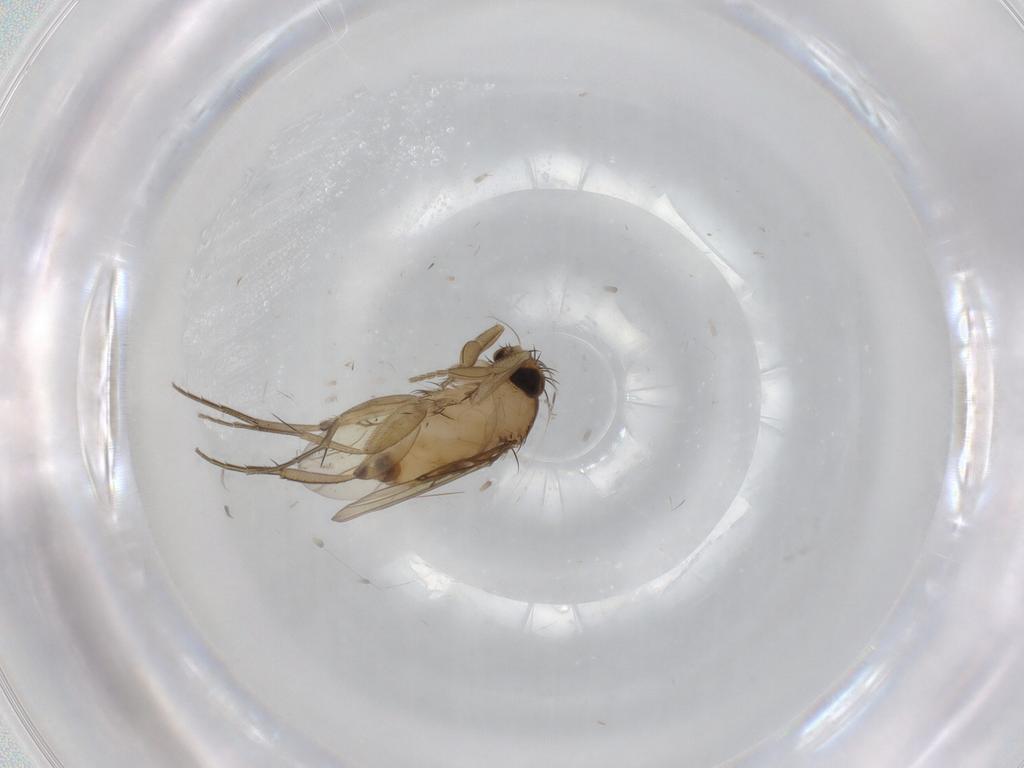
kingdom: Animalia
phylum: Arthropoda
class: Insecta
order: Diptera
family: Phoridae
